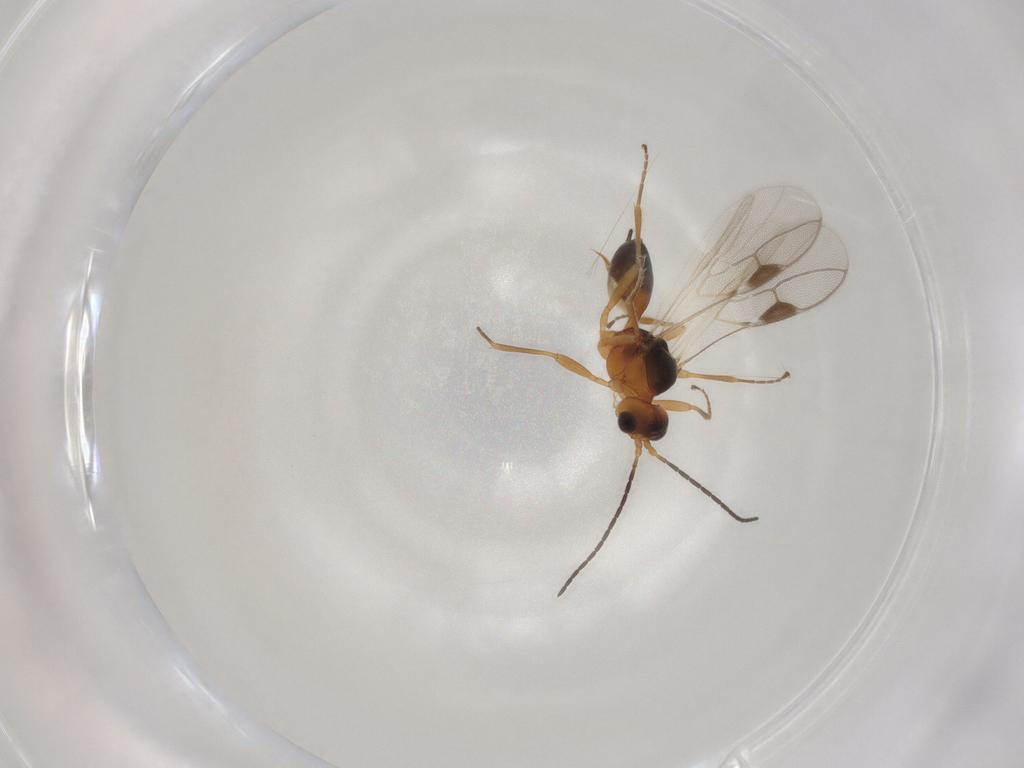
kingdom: Animalia
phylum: Arthropoda
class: Insecta
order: Hymenoptera
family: Braconidae
